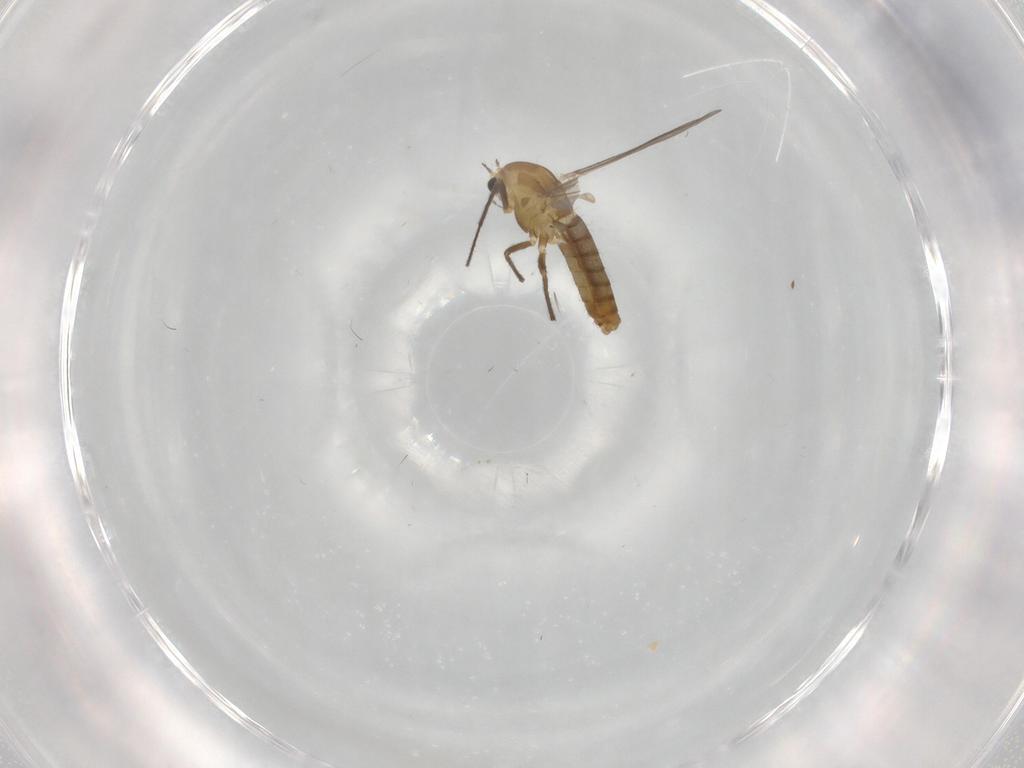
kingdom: Animalia
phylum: Arthropoda
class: Insecta
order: Diptera
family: Chironomidae
